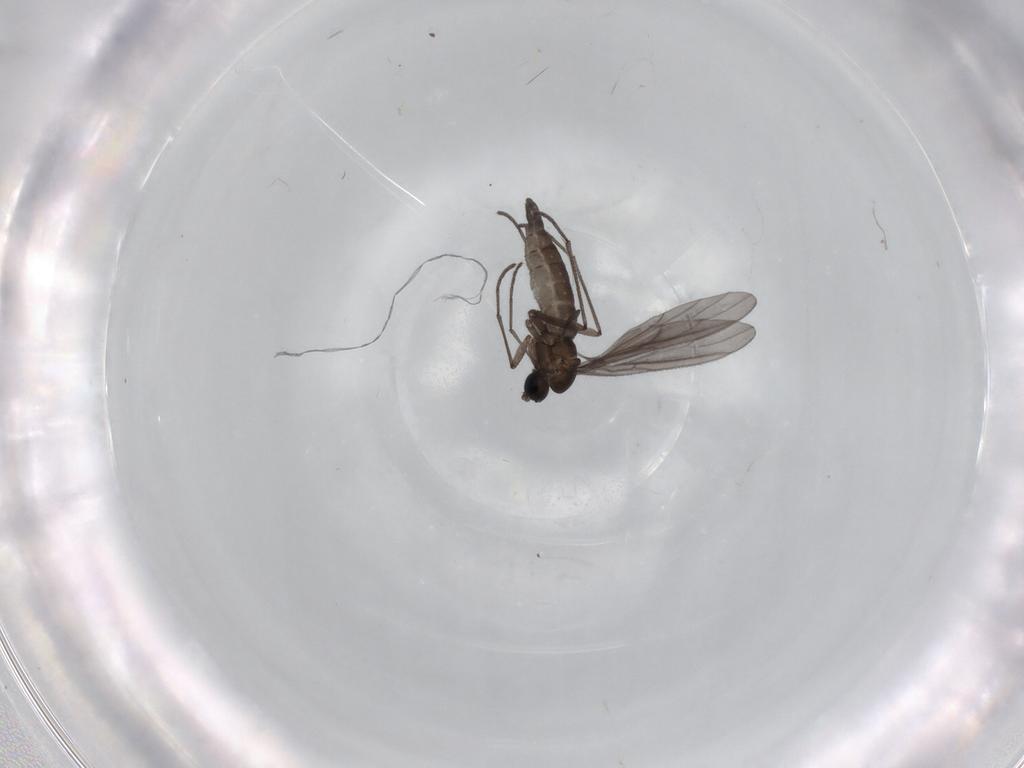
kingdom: Animalia
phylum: Arthropoda
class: Insecta
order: Diptera
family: Sciaridae
